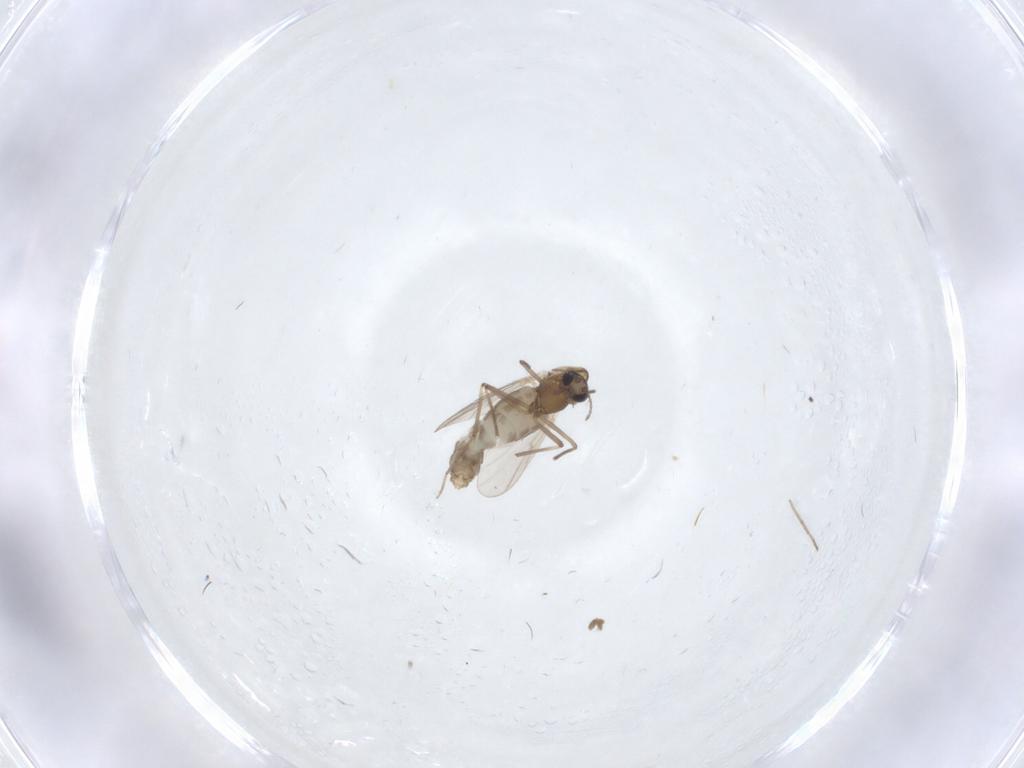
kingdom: Animalia
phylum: Arthropoda
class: Insecta
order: Diptera
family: Chironomidae
